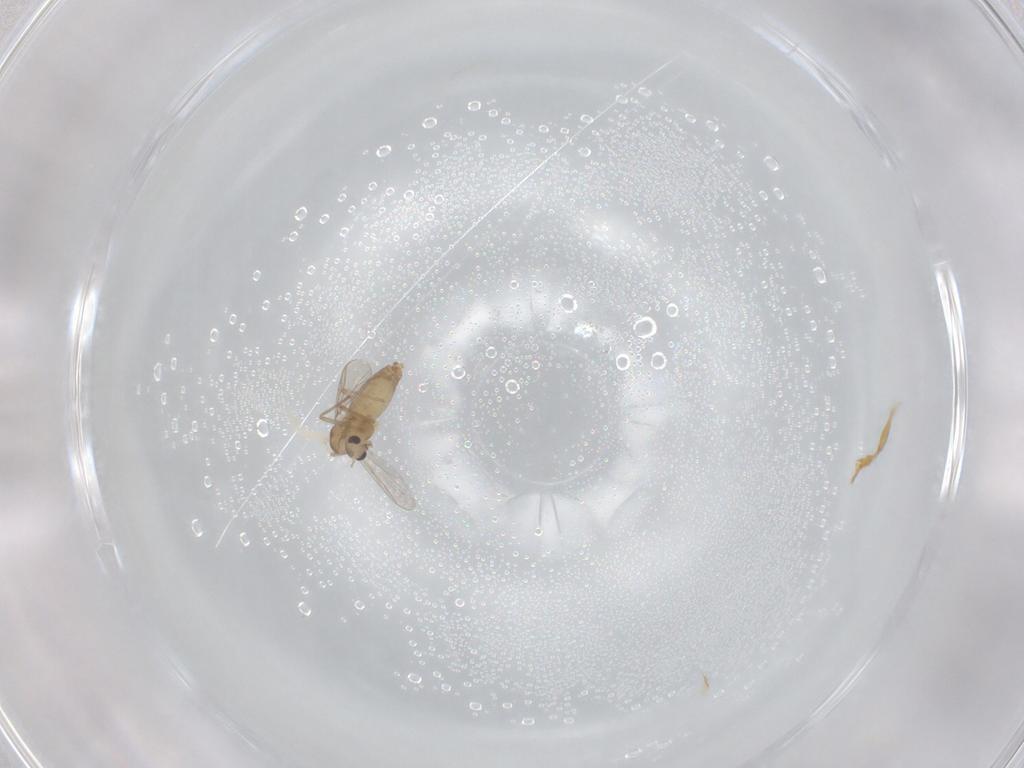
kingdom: Animalia
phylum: Arthropoda
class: Insecta
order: Diptera
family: Chironomidae
